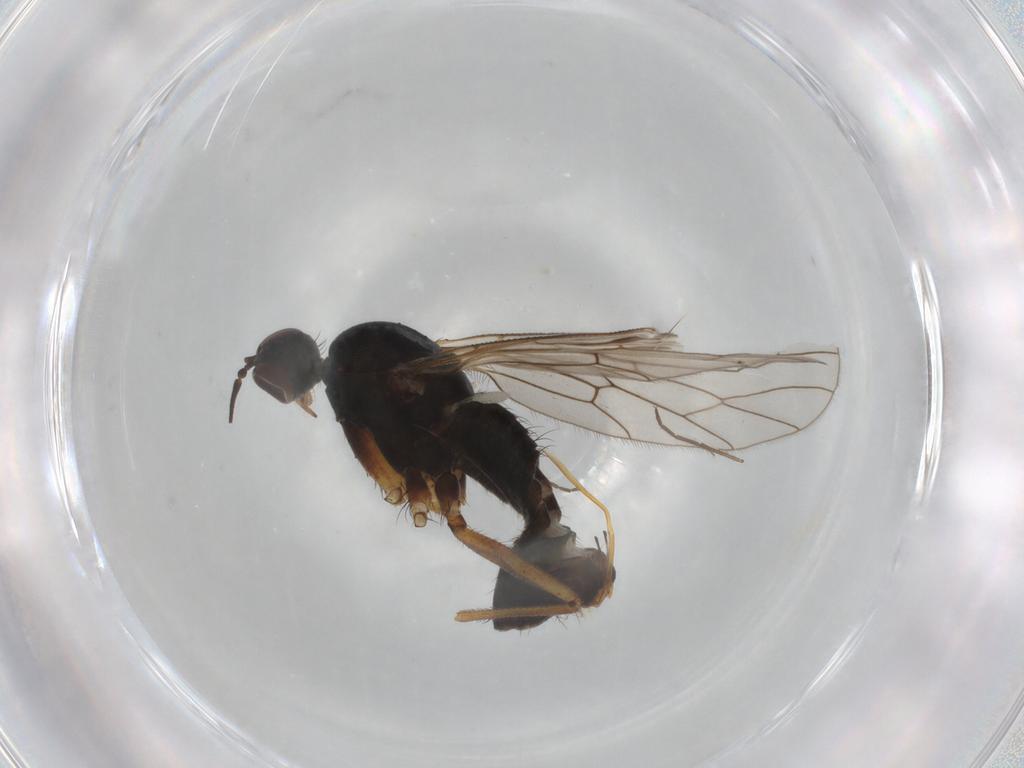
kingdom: Animalia
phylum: Arthropoda
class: Insecta
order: Diptera
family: Empididae
